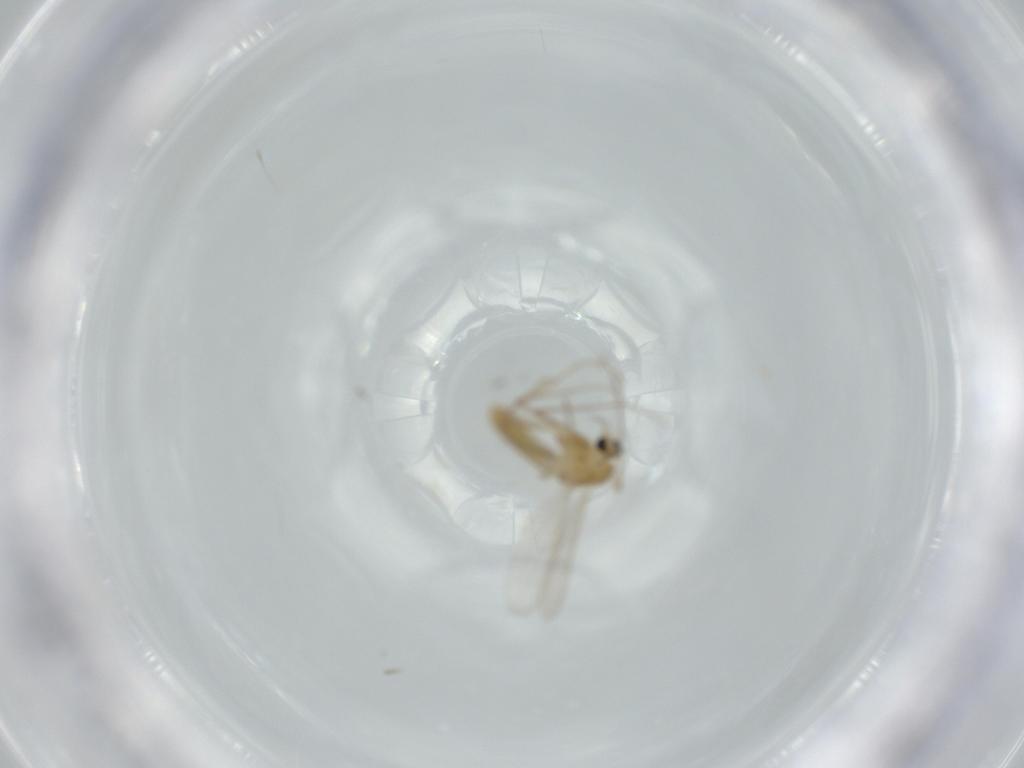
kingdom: Animalia
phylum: Arthropoda
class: Insecta
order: Diptera
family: Chironomidae
